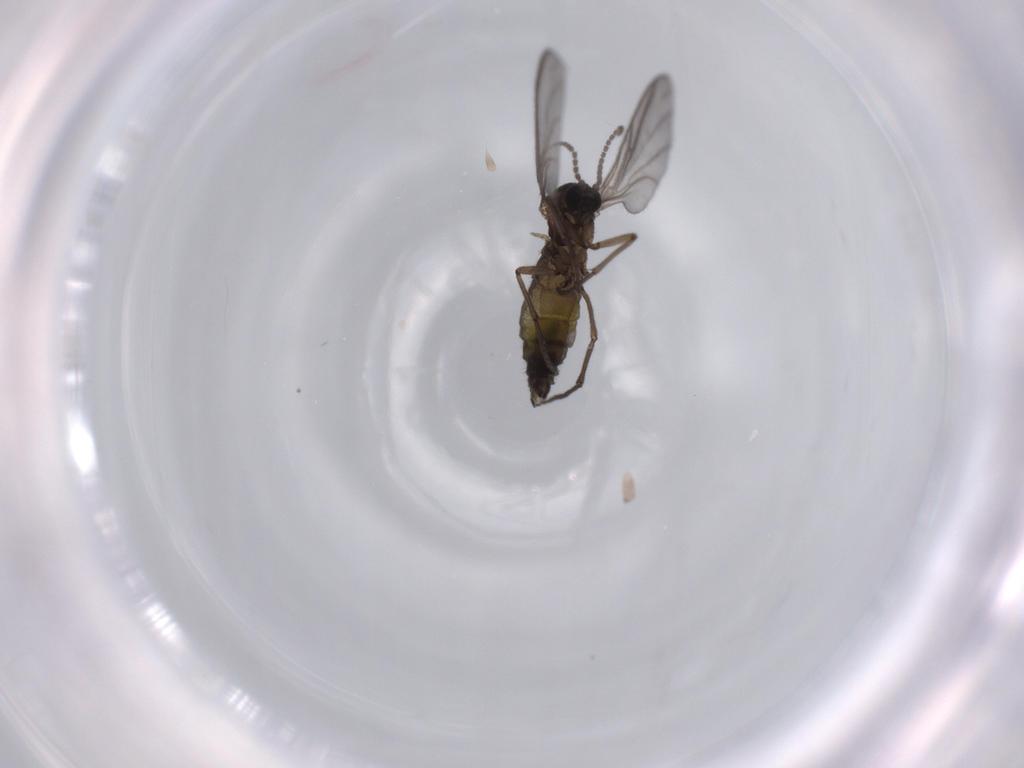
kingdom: Animalia
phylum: Arthropoda
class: Insecta
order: Diptera
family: Sciaridae
